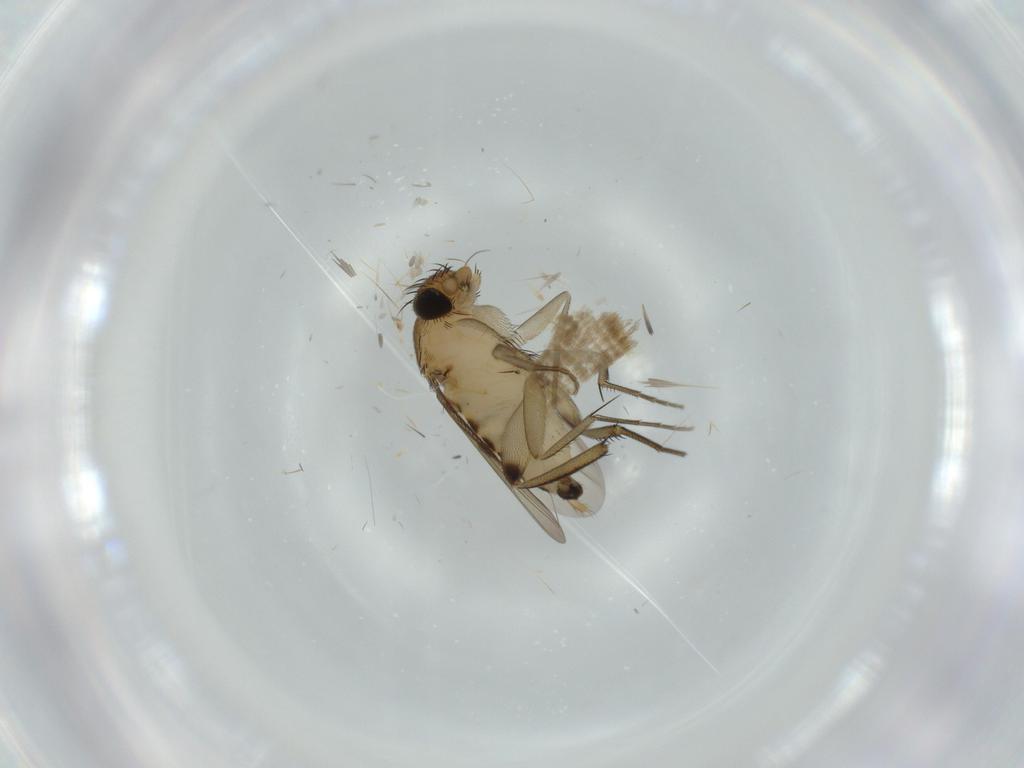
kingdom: Animalia
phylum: Arthropoda
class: Insecta
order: Diptera
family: Phoridae
